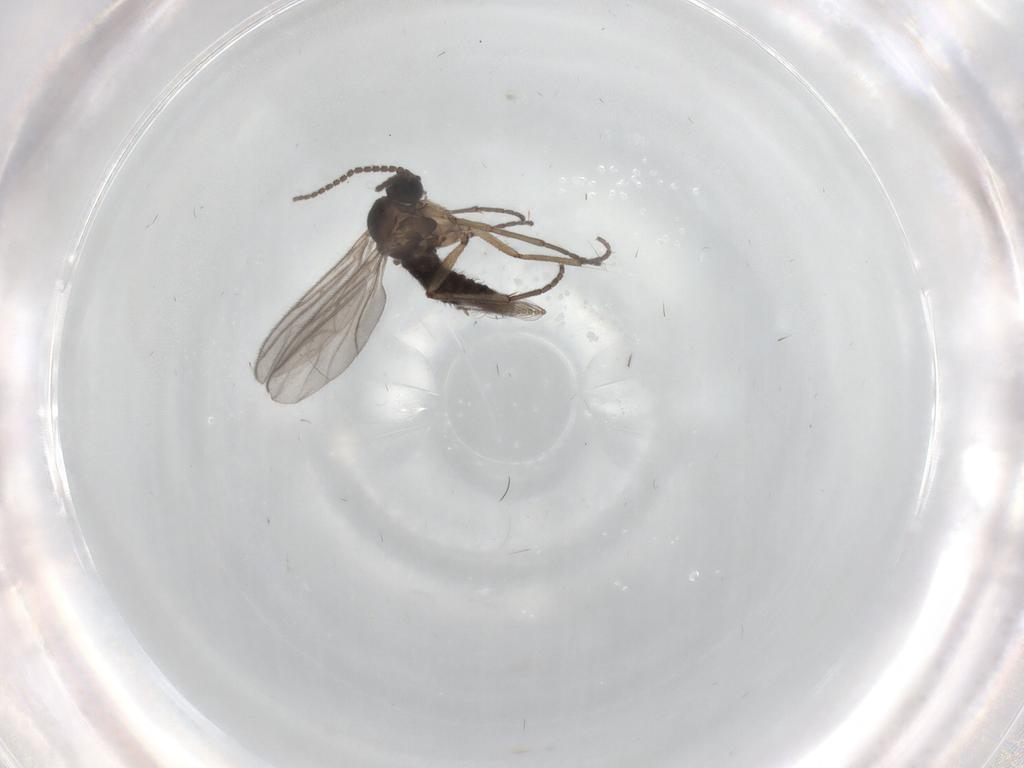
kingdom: Animalia
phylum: Arthropoda
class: Insecta
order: Diptera
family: Sciaridae
